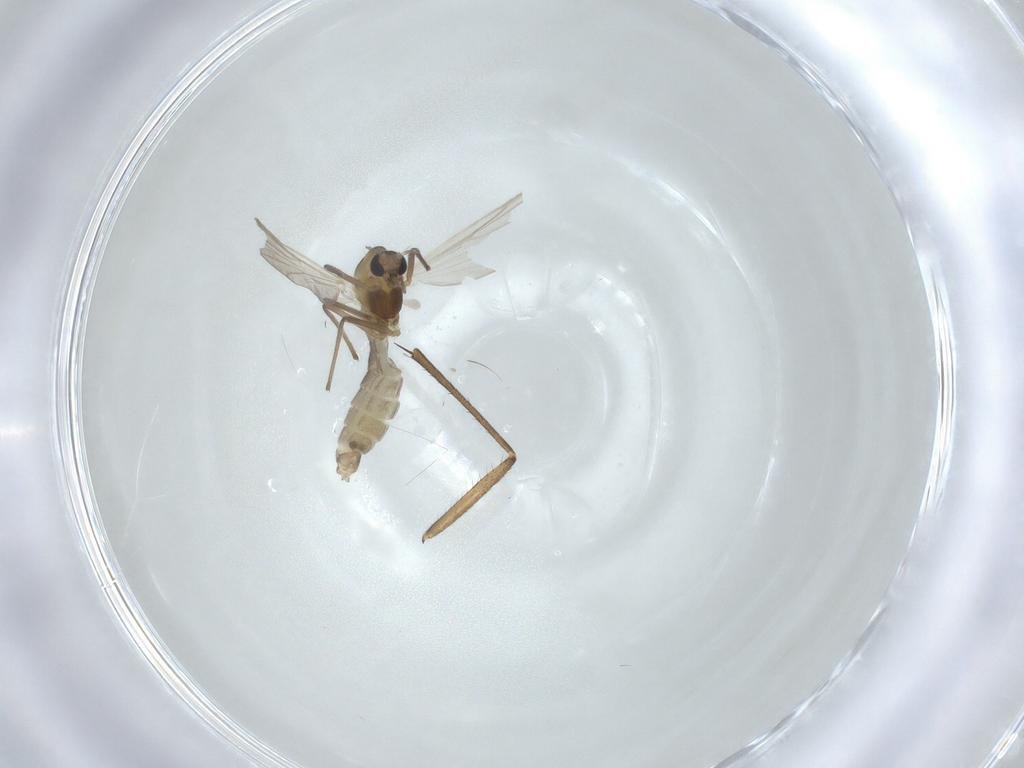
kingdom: Animalia
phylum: Arthropoda
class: Insecta
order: Diptera
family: Chironomidae
